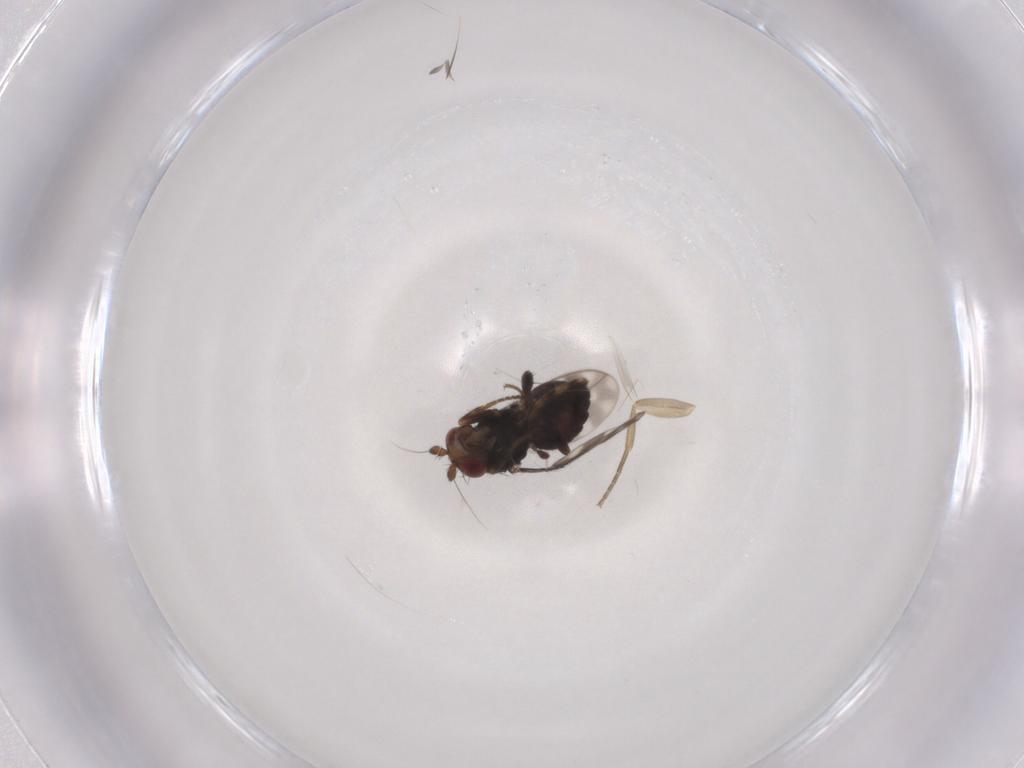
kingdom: Animalia
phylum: Arthropoda
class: Insecta
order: Diptera
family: Sphaeroceridae
